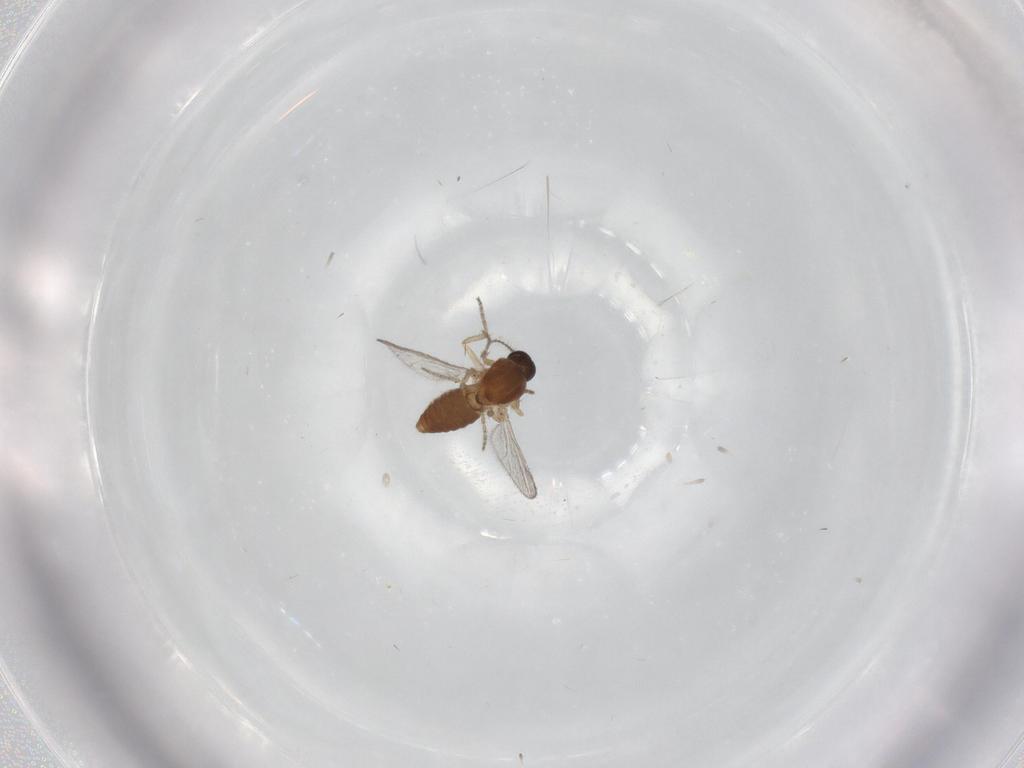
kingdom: Animalia
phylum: Arthropoda
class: Insecta
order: Diptera
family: Ceratopogonidae
